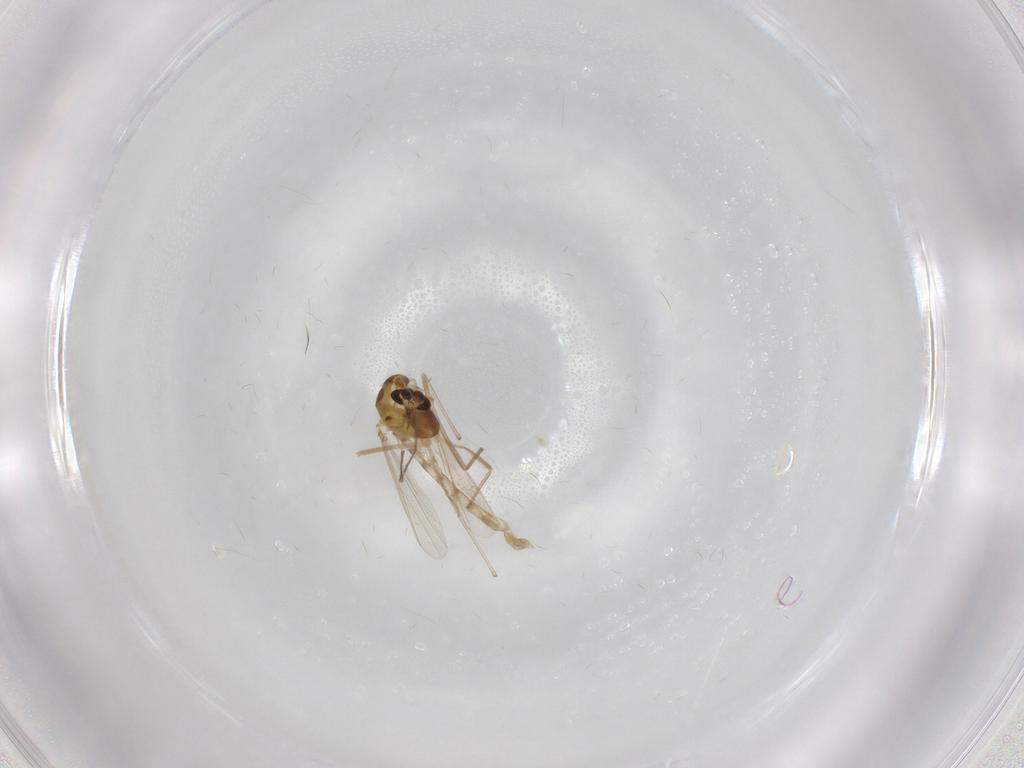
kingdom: Animalia
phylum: Arthropoda
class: Insecta
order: Diptera
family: Chironomidae
